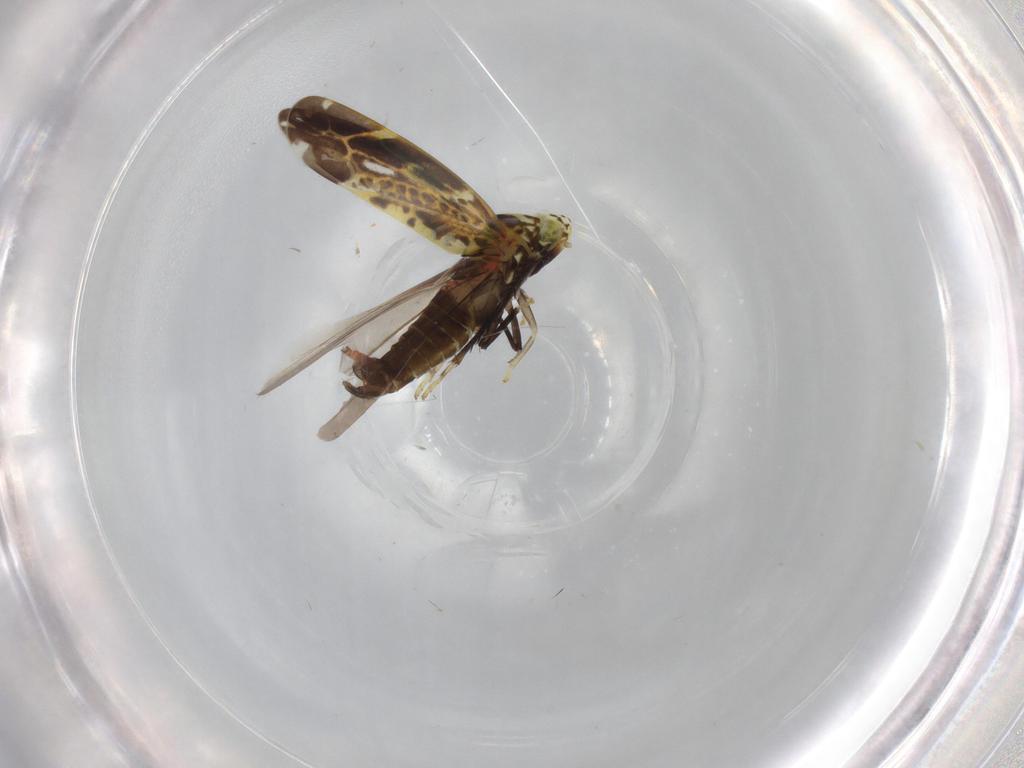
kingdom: Animalia
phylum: Arthropoda
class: Insecta
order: Hemiptera
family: Cicadellidae
